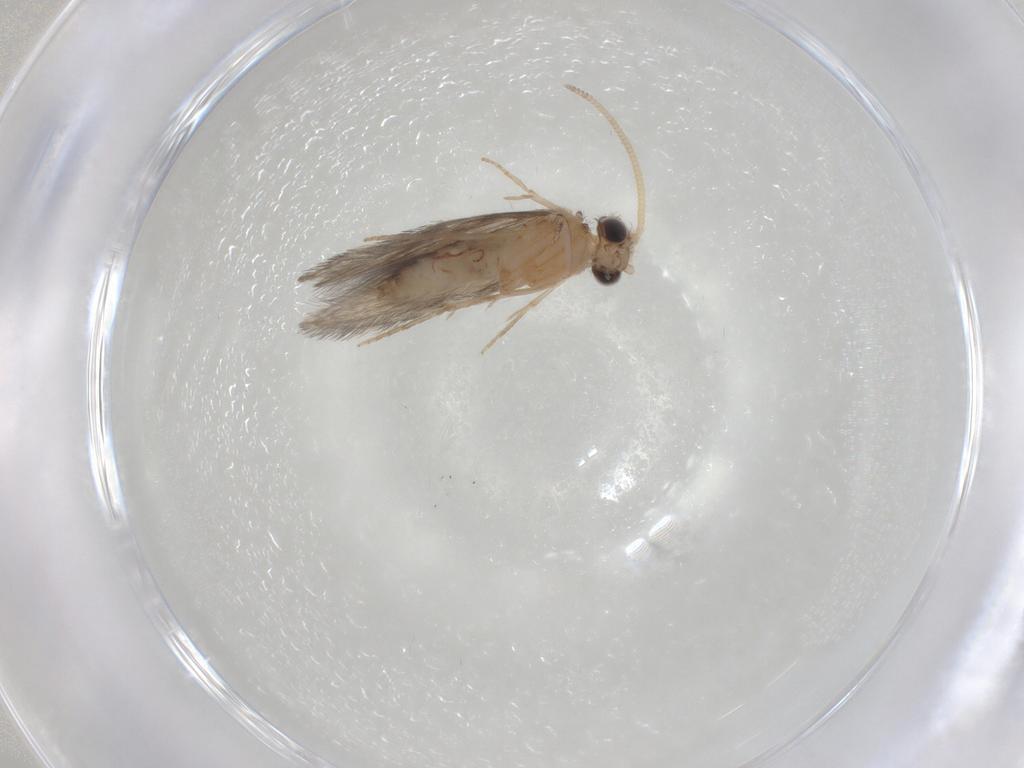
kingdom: Animalia
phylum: Arthropoda
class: Insecta
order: Trichoptera
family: Hydroptilidae
